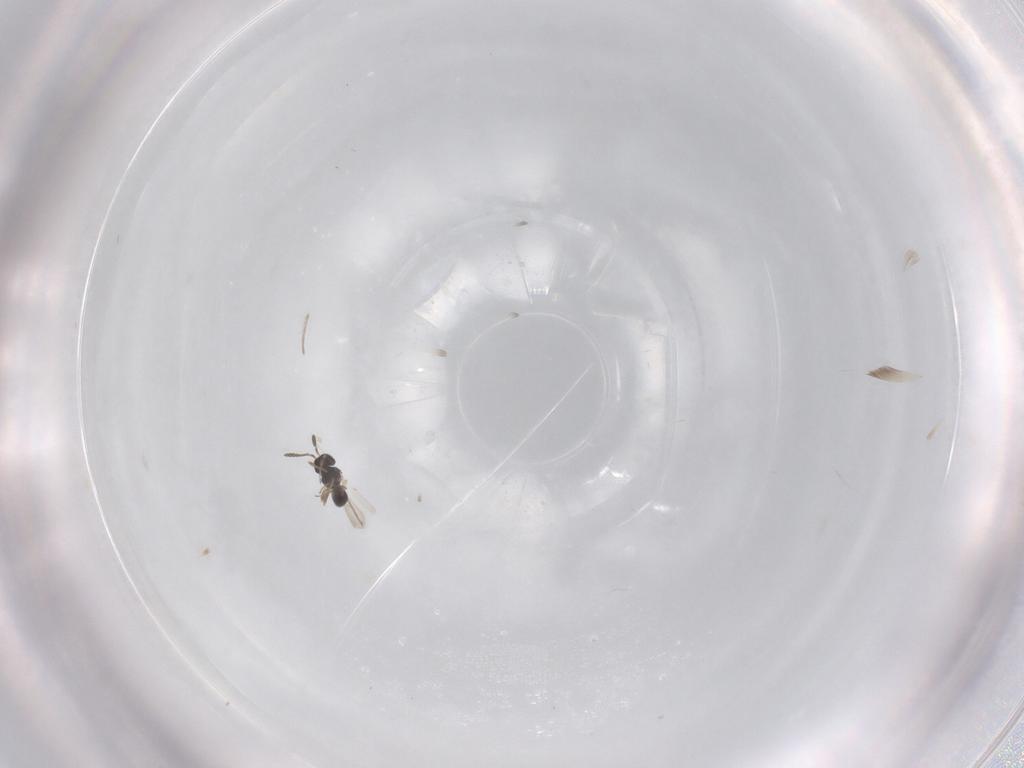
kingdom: Animalia
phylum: Arthropoda
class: Insecta
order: Hymenoptera
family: Scelionidae
